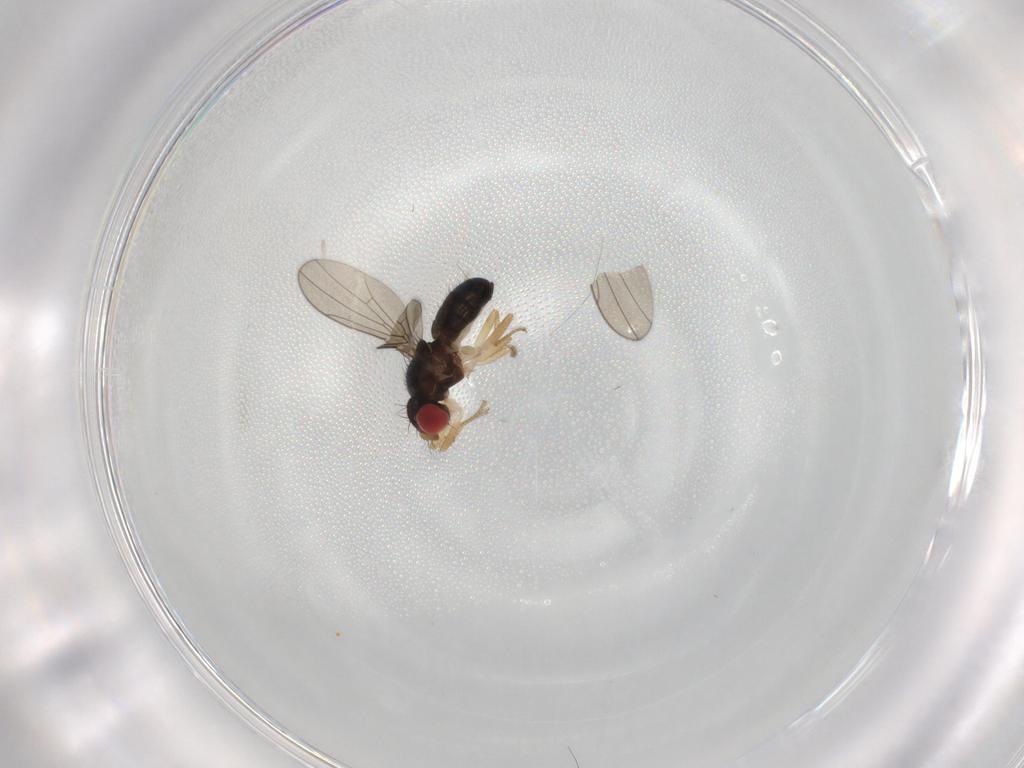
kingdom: Animalia
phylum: Arthropoda
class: Insecta
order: Diptera
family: Drosophilidae
